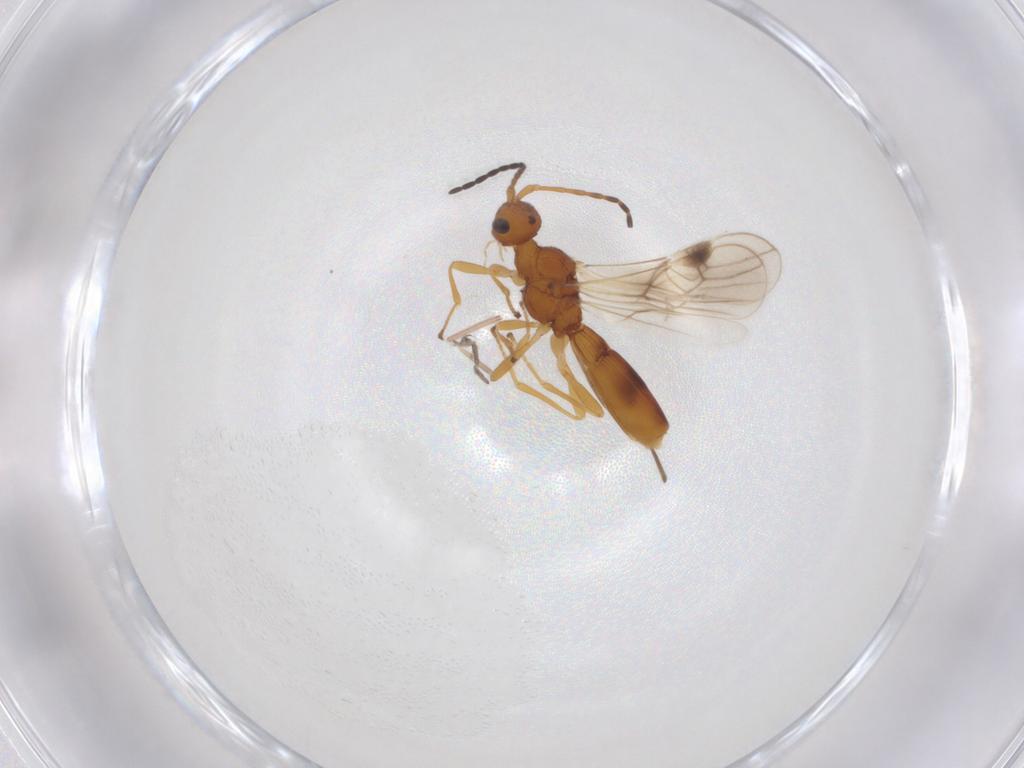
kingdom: Animalia
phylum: Arthropoda
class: Insecta
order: Hymenoptera
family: Braconidae
